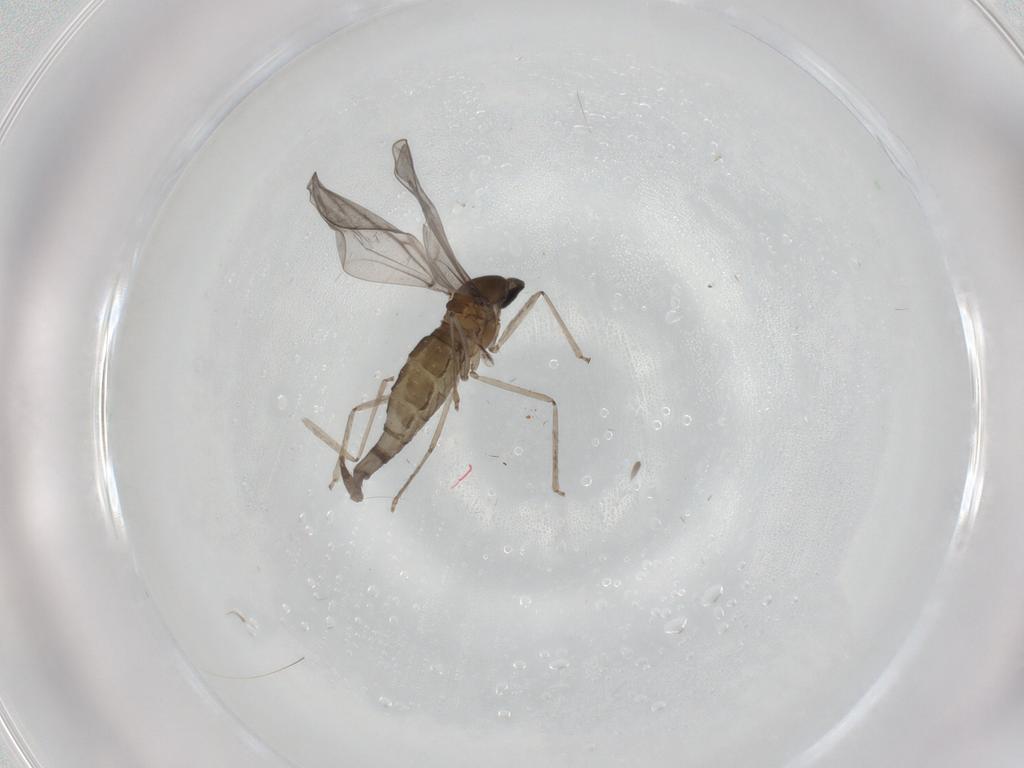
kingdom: Animalia
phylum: Arthropoda
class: Insecta
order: Diptera
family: Cecidomyiidae
